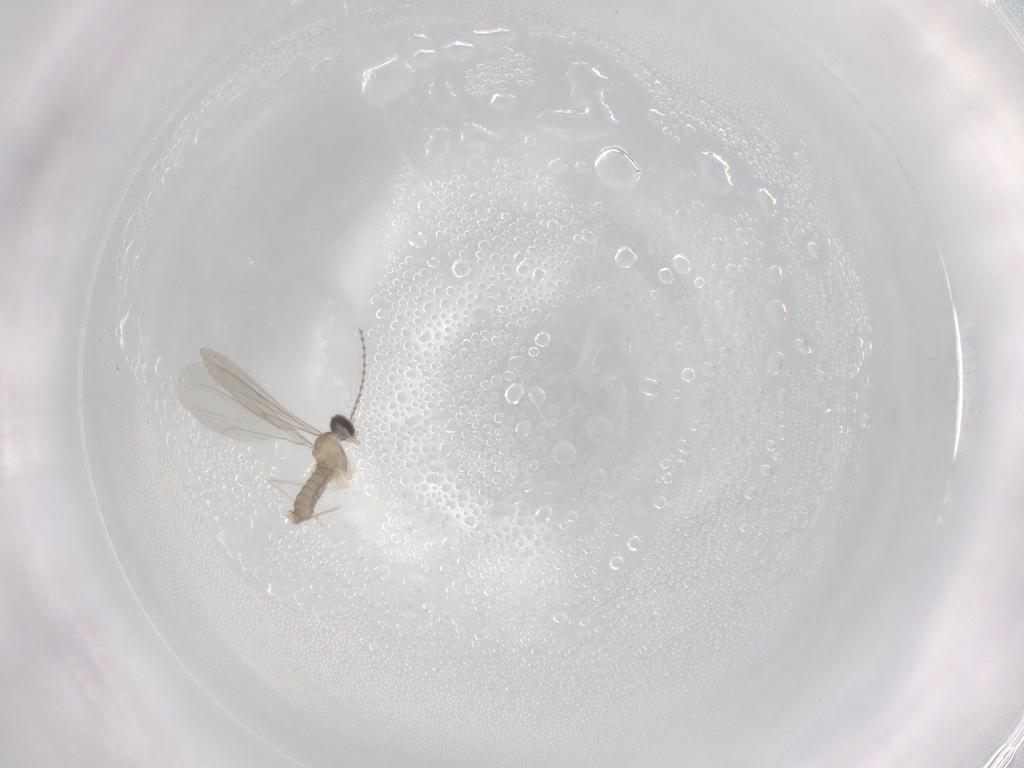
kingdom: Animalia
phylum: Arthropoda
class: Insecta
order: Diptera
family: Cecidomyiidae
